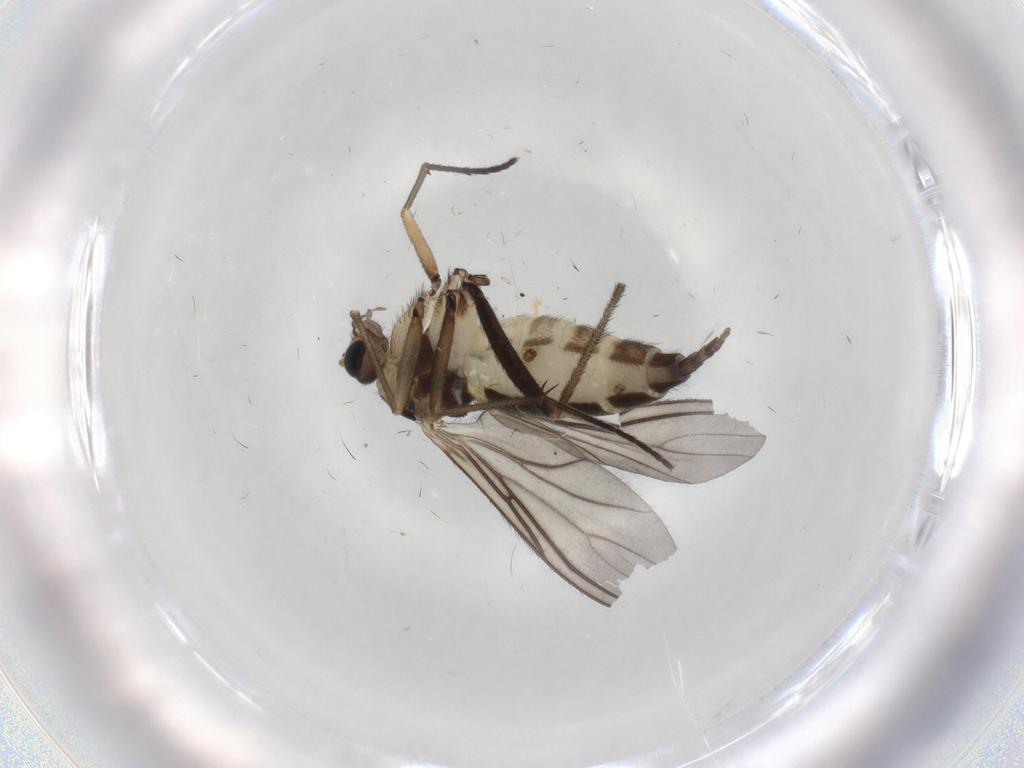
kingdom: Animalia
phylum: Arthropoda
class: Insecta
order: Diptera
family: Sciaridae
